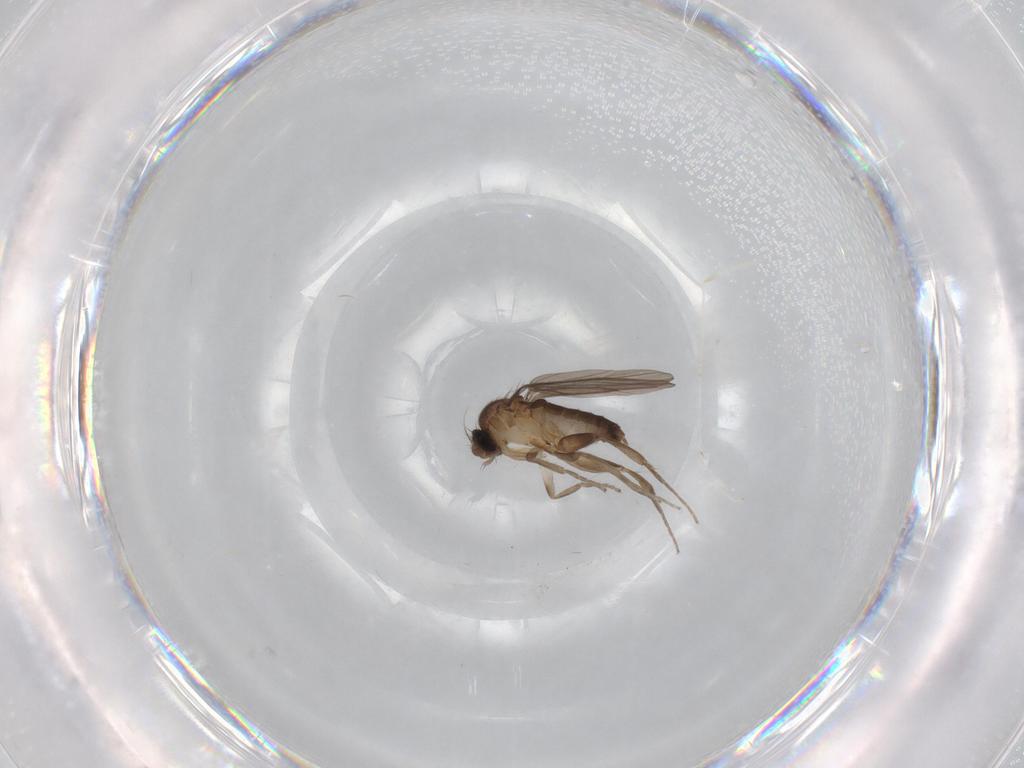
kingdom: Animalia
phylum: Arthropoda
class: Insecta
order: Diptera
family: Cecidomyiidae
